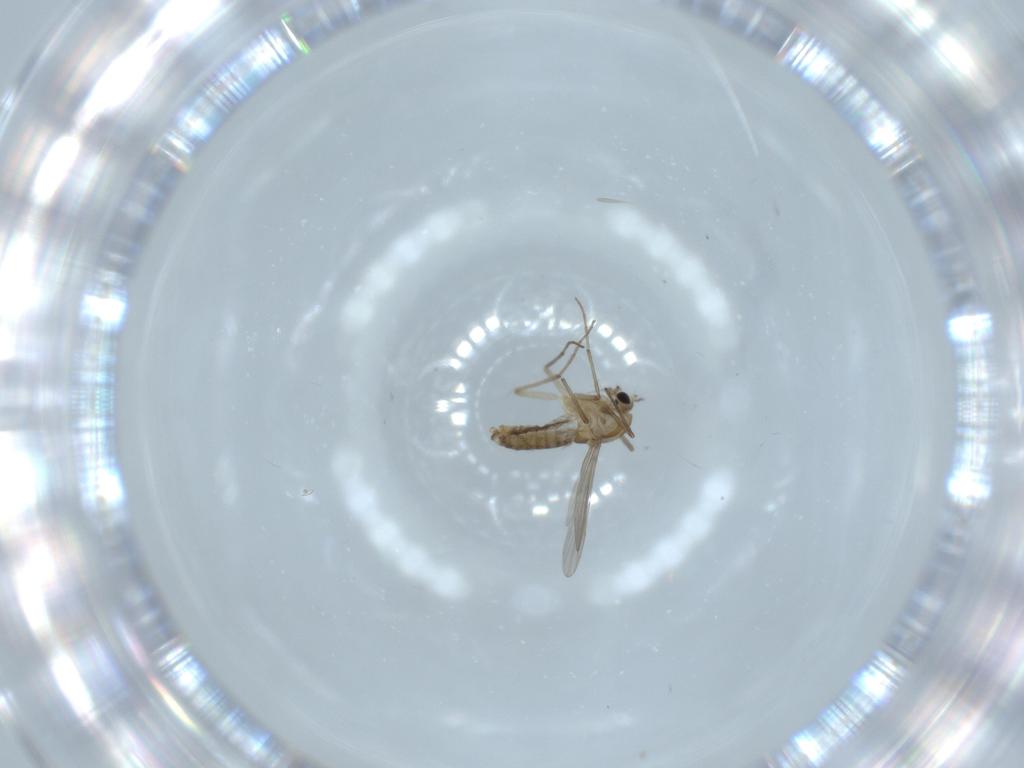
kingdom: Animalia
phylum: Arthropoda
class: Insecta
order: Diptera
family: Chironomidae
